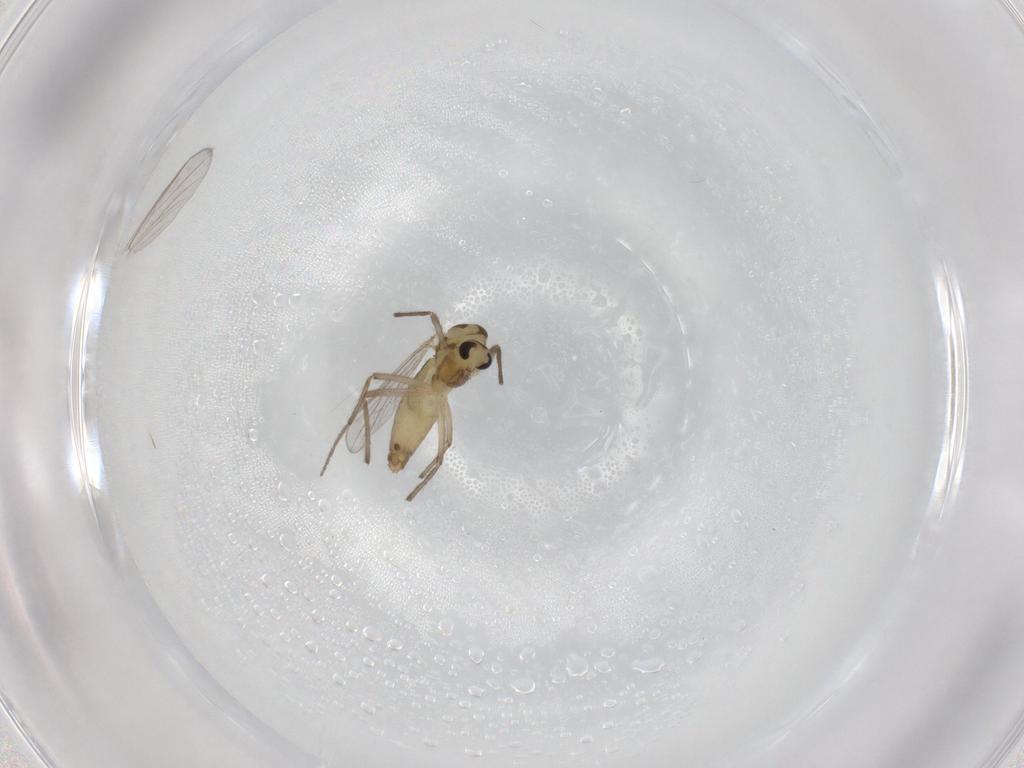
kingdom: Animalia
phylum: Arthropoda
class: Insecta
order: Diptera
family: Chironomidae
